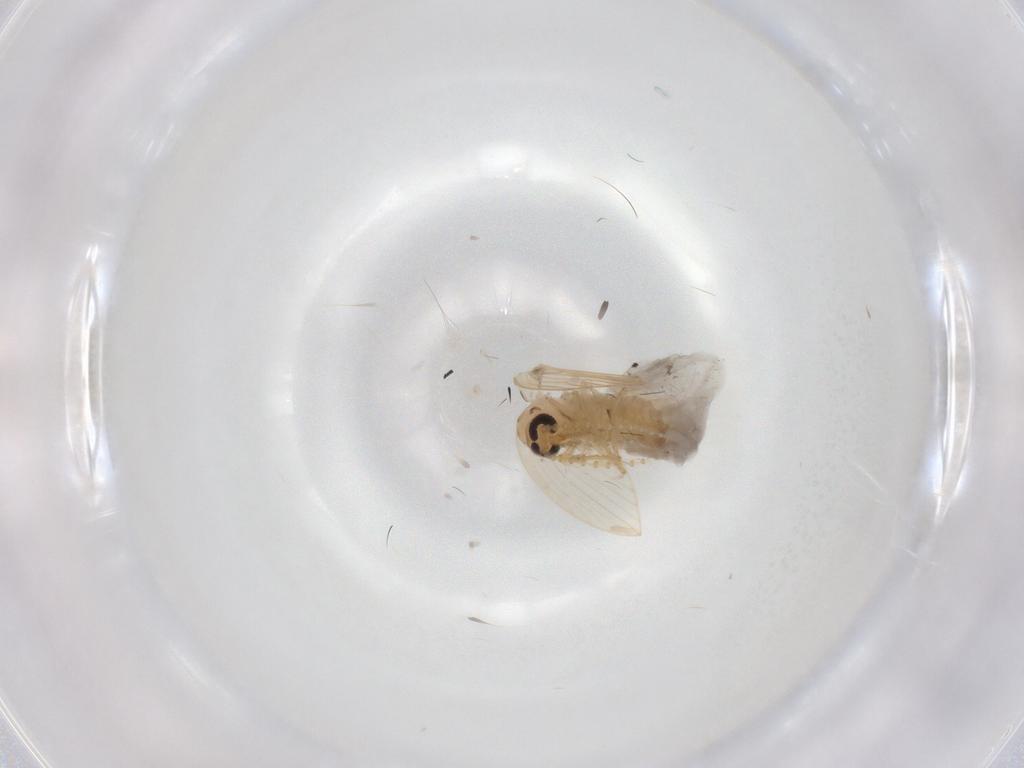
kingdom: Animalia
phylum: Arthropoda
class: Insecta
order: Diptera
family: Psychodidae
